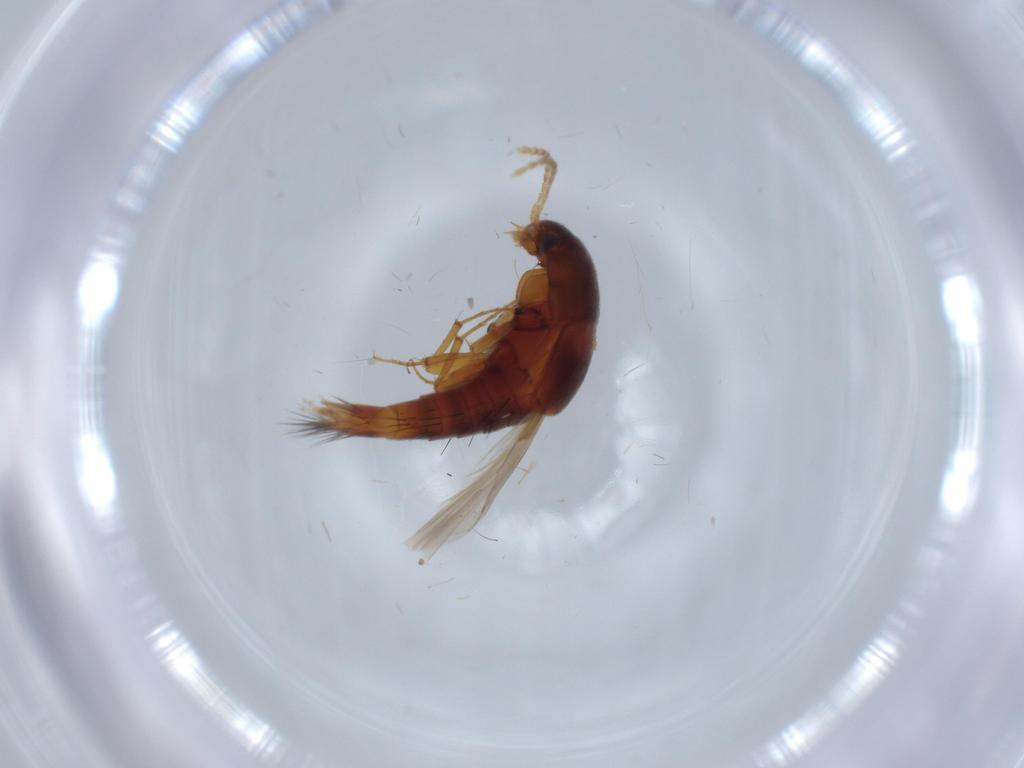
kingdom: Animalia
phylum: Arthropoda
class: Insecta
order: Coleoptera
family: Staphylinidae
